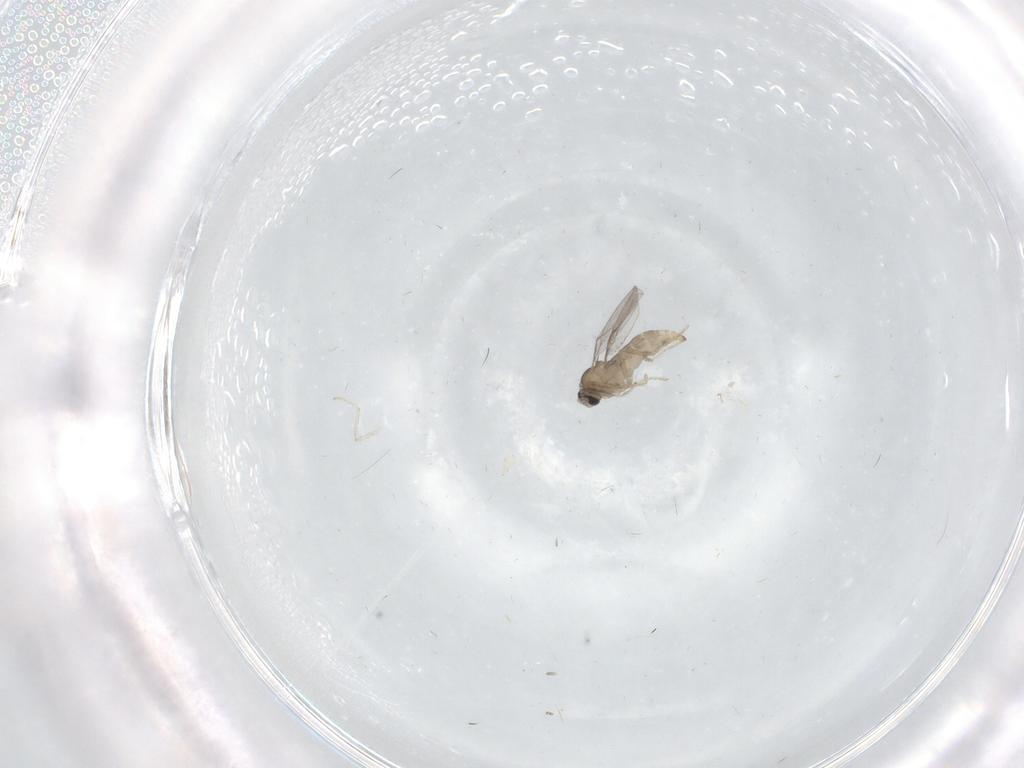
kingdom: Animalia
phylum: Arthropoda
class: Insecta
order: Diptera
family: Cecidomyiidae
